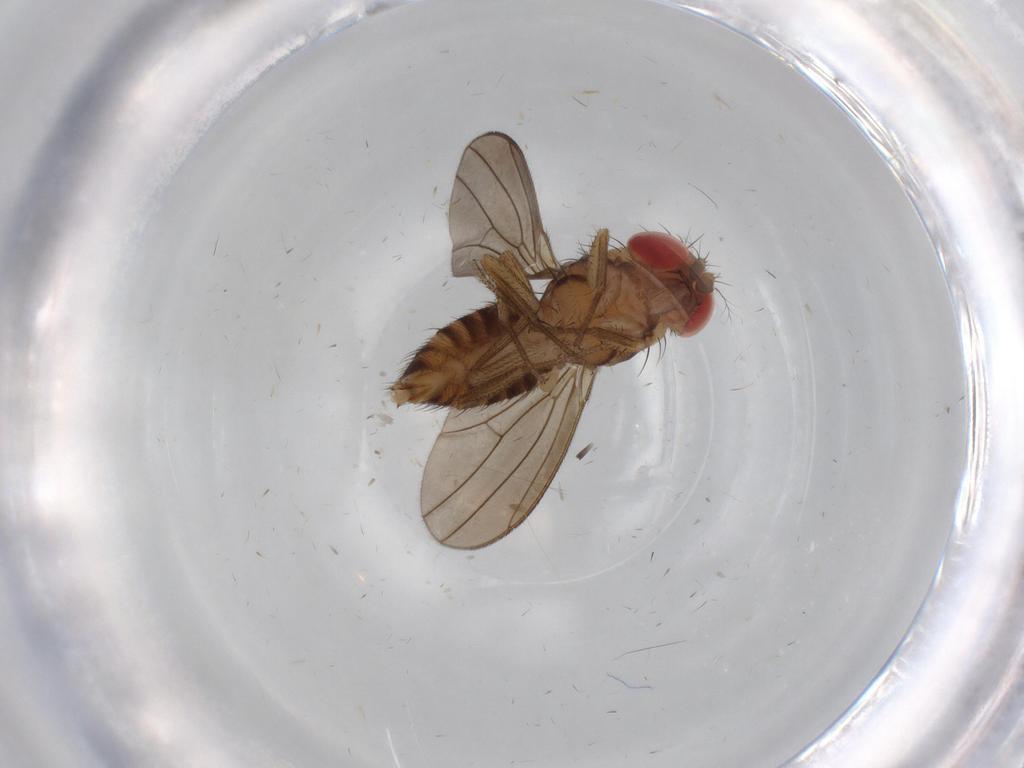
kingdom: Animalia
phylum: Arthropoda
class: Insecta
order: Diptera
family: Drosophilidae
